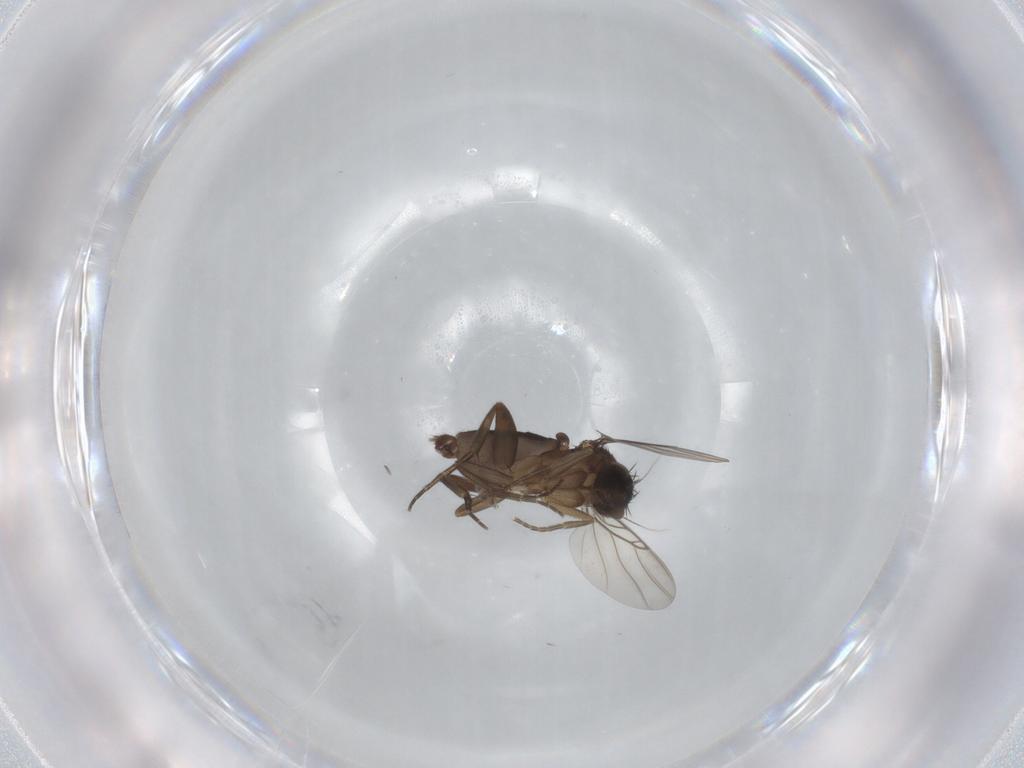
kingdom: Animalia
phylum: Arthropoda
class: Insecta
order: Diptera
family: Phoridae
